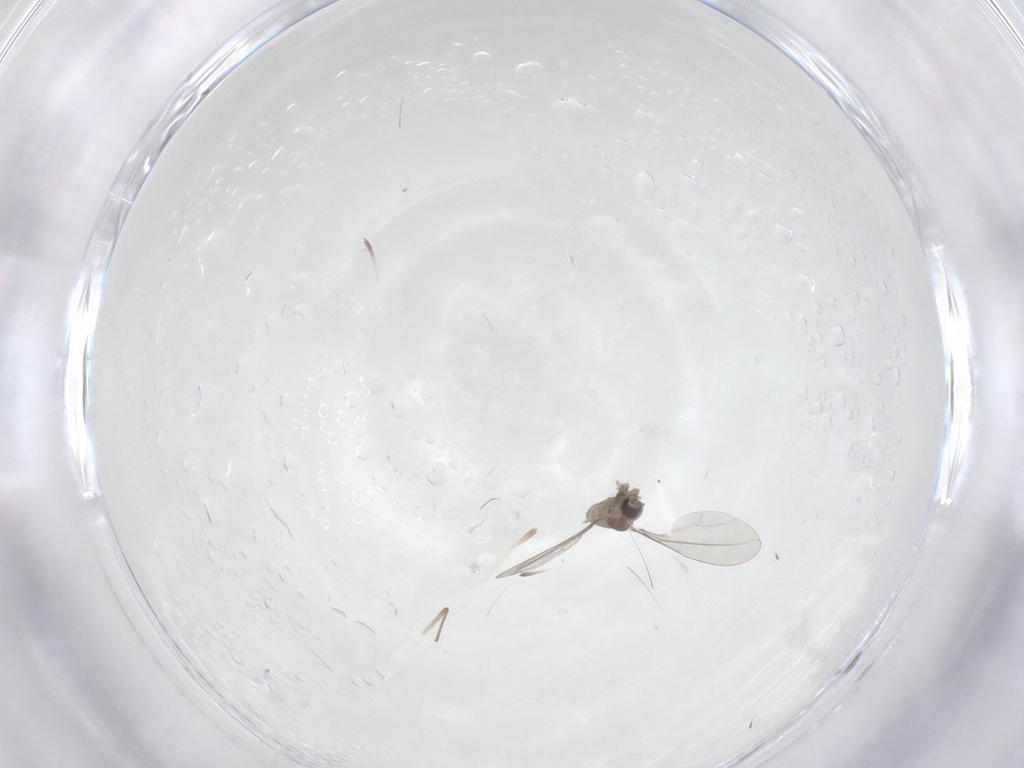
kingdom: Animalia
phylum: Arthropoda
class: Insecta
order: Diptera
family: Chironomidae
